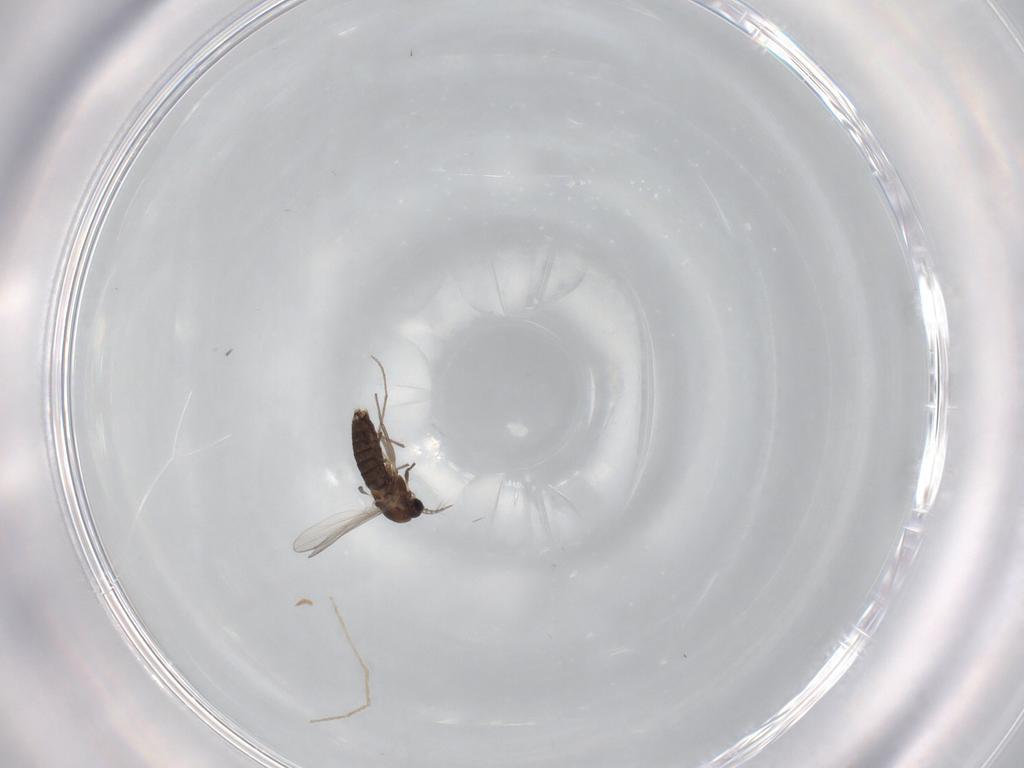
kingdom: Animalia
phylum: Arthropoda
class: Insecta
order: Diptera
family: Chironomidae
